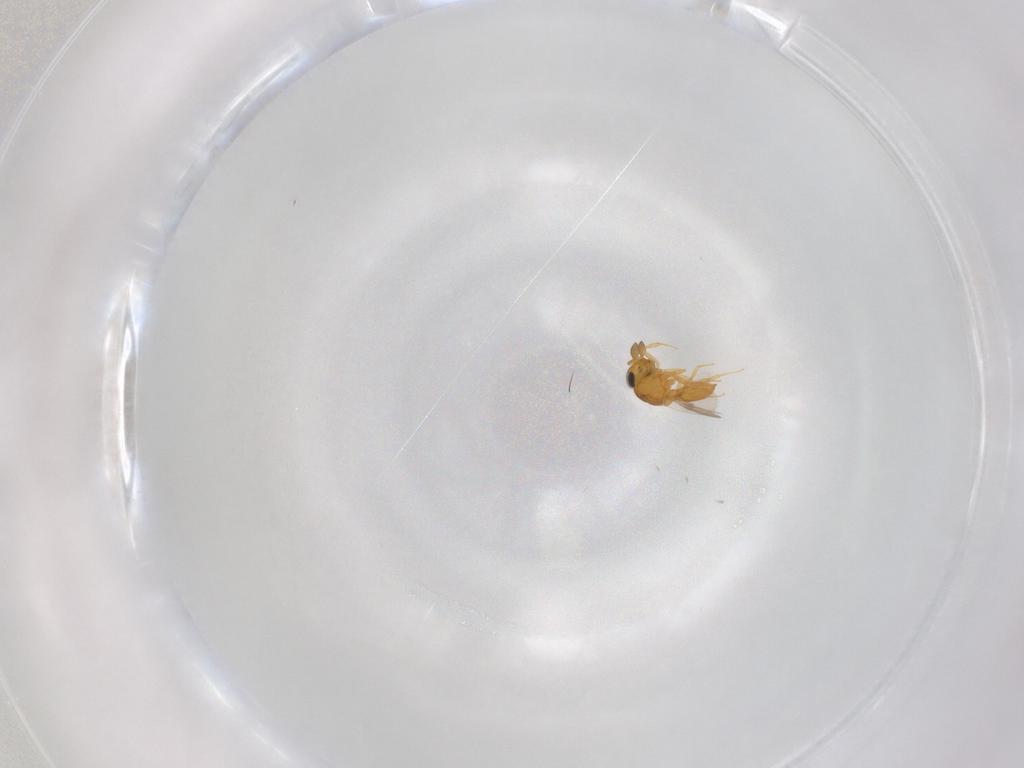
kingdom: Animalia
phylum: Arthropoda
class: Insecta
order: Hymenoptera
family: Scelionidae
